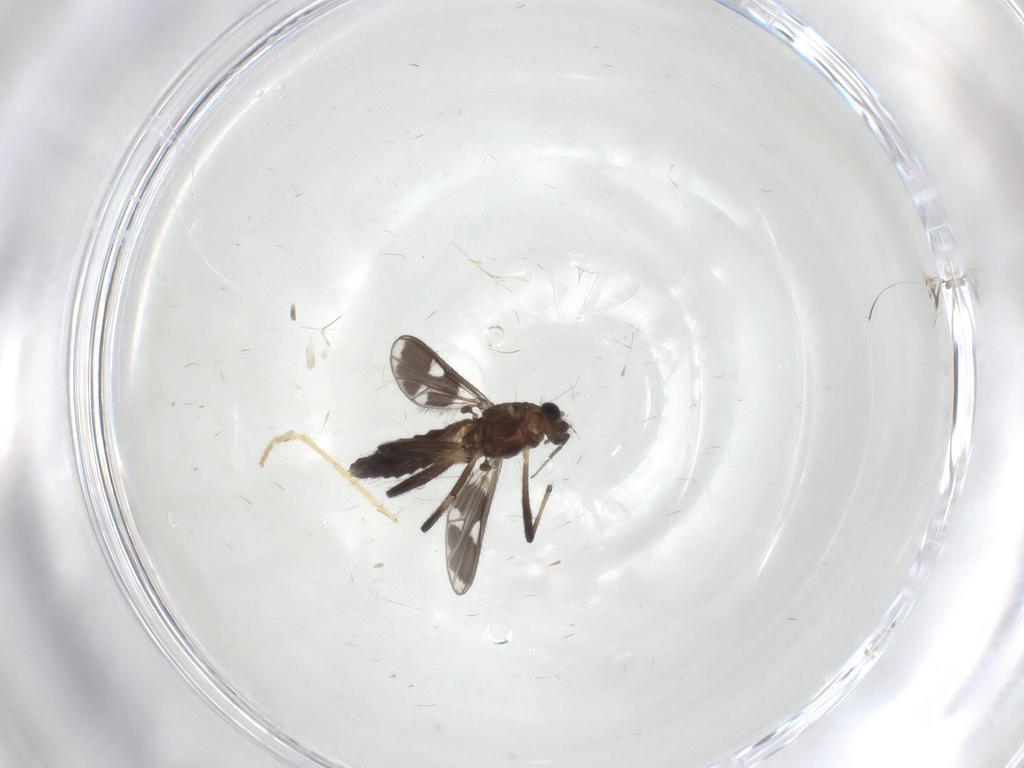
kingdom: Animalia
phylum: Arthropoda
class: Insecta
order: Diptera
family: Chironomidae
